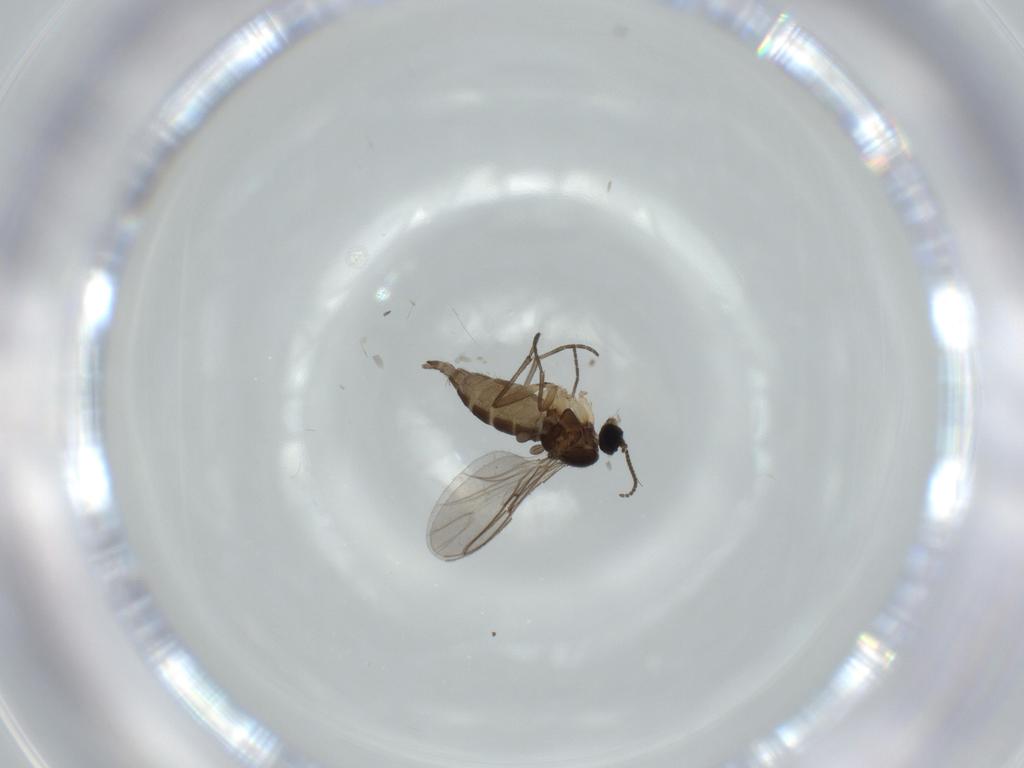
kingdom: Animalia
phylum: Arthropoda
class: Insecta
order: Diptera
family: Sciaridae
